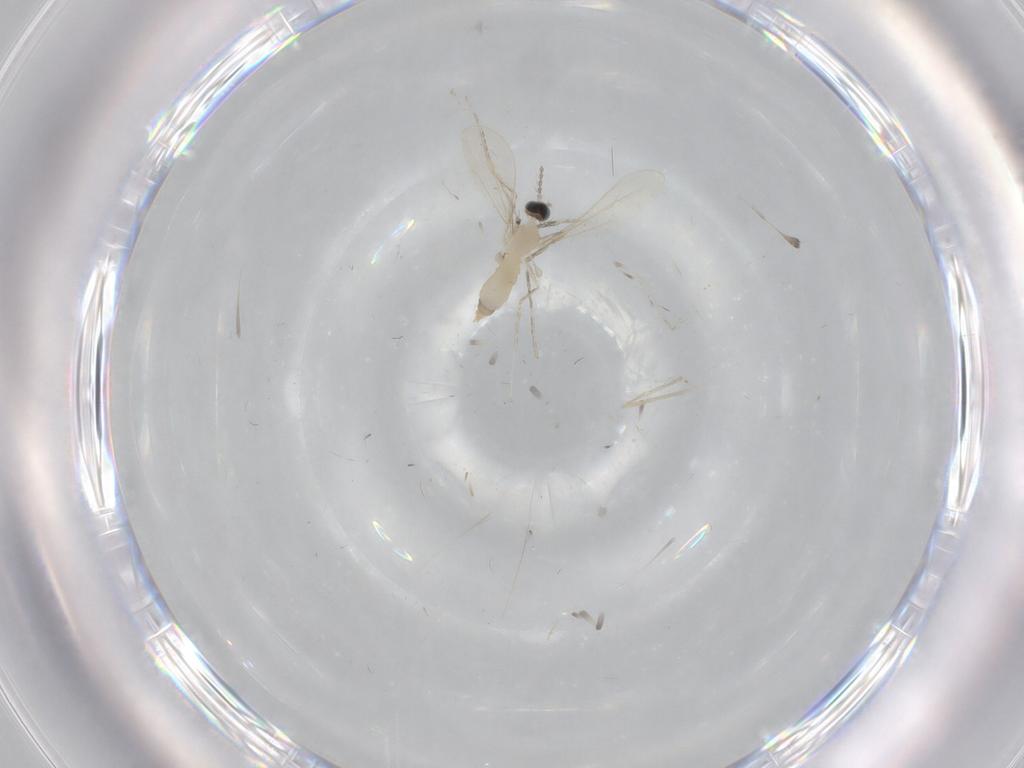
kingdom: Animalia
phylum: Arthropoda
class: Insecta
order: Diptera
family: Cecidomyiidae
